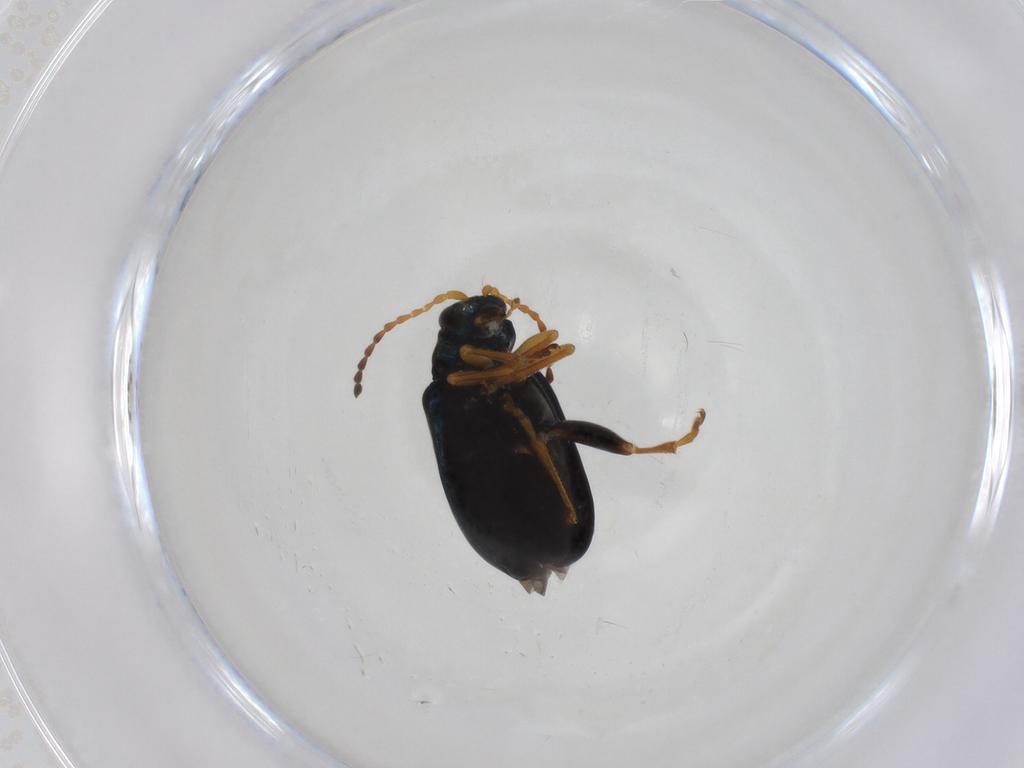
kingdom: Animalia
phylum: Arthropoda
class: Insecta
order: Coleoptera
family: Chrysomelidae
